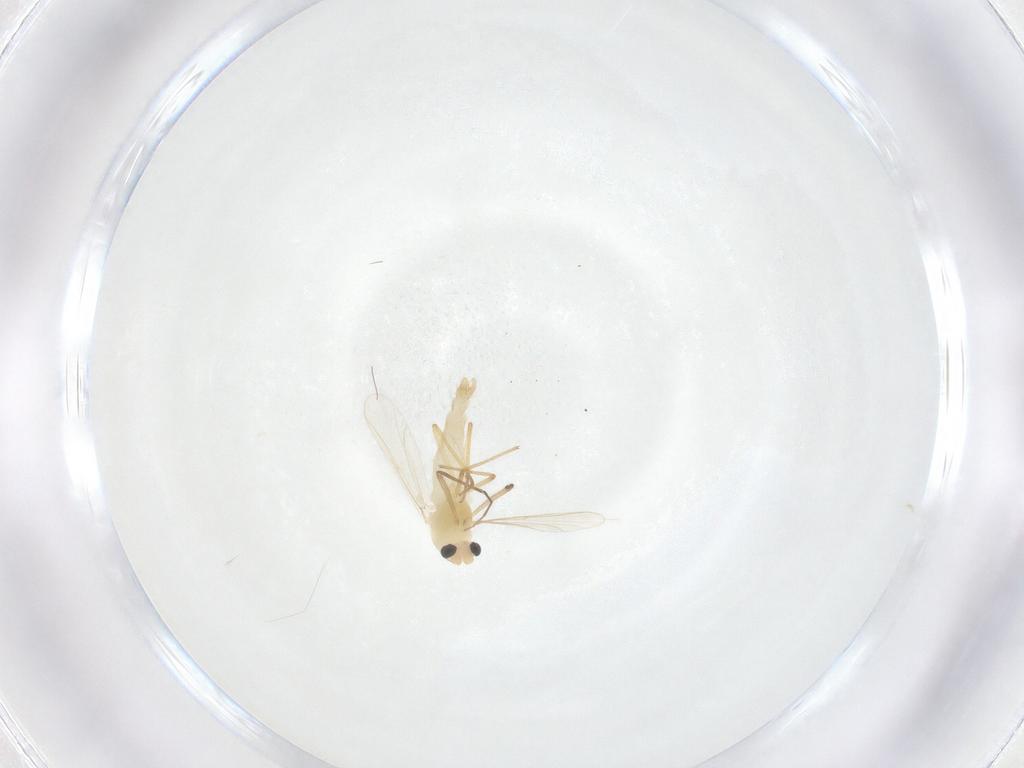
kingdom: Animalia
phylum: Arthropoda
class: Insecta
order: Diptera
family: Chironomidae
